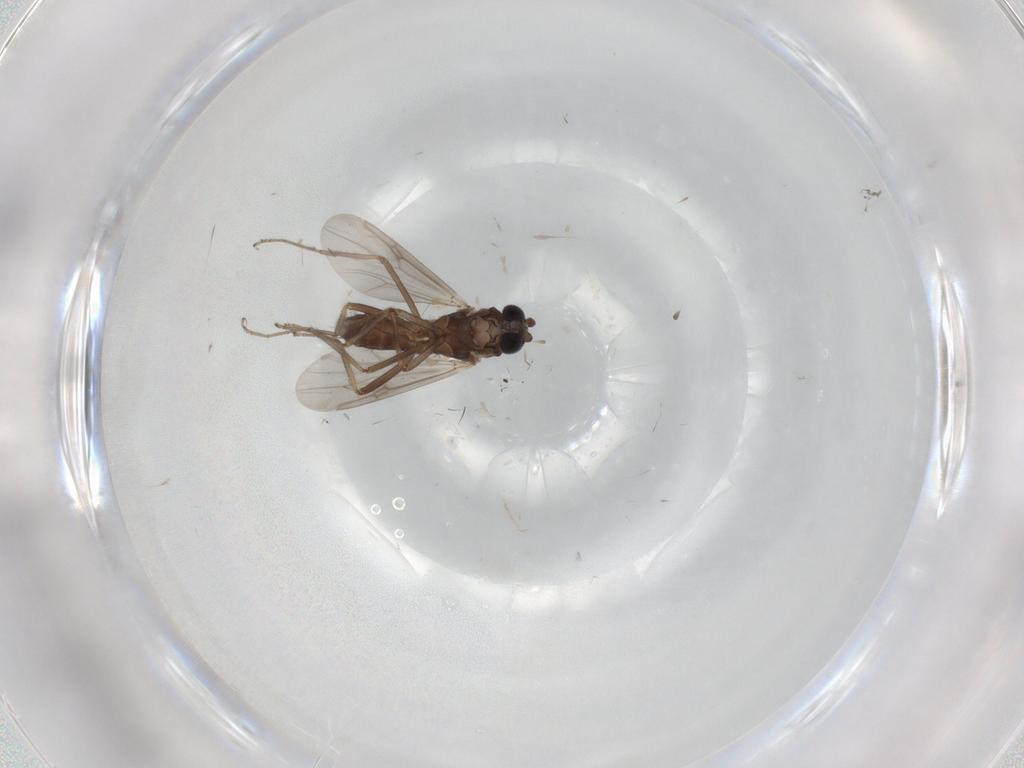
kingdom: Animalia
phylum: Arthropoda
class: Insecta
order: Diptera
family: Ceratopogonidae
